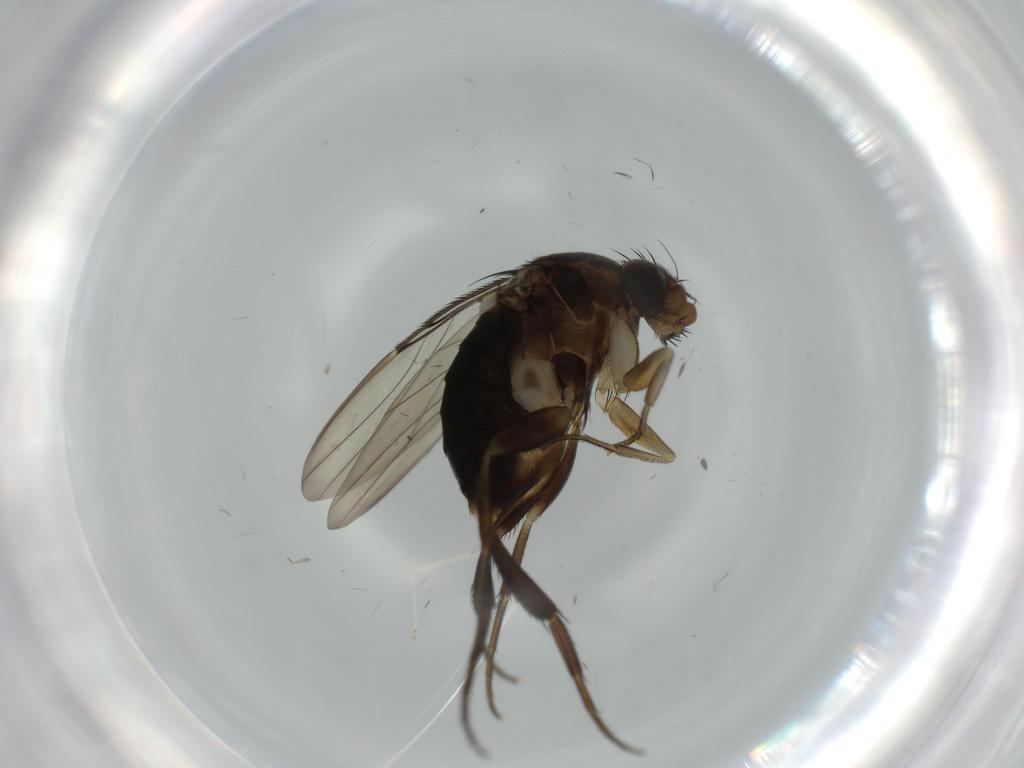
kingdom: Animalia
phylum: Arthropoda
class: Insecta
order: Diptera
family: Phoridae
